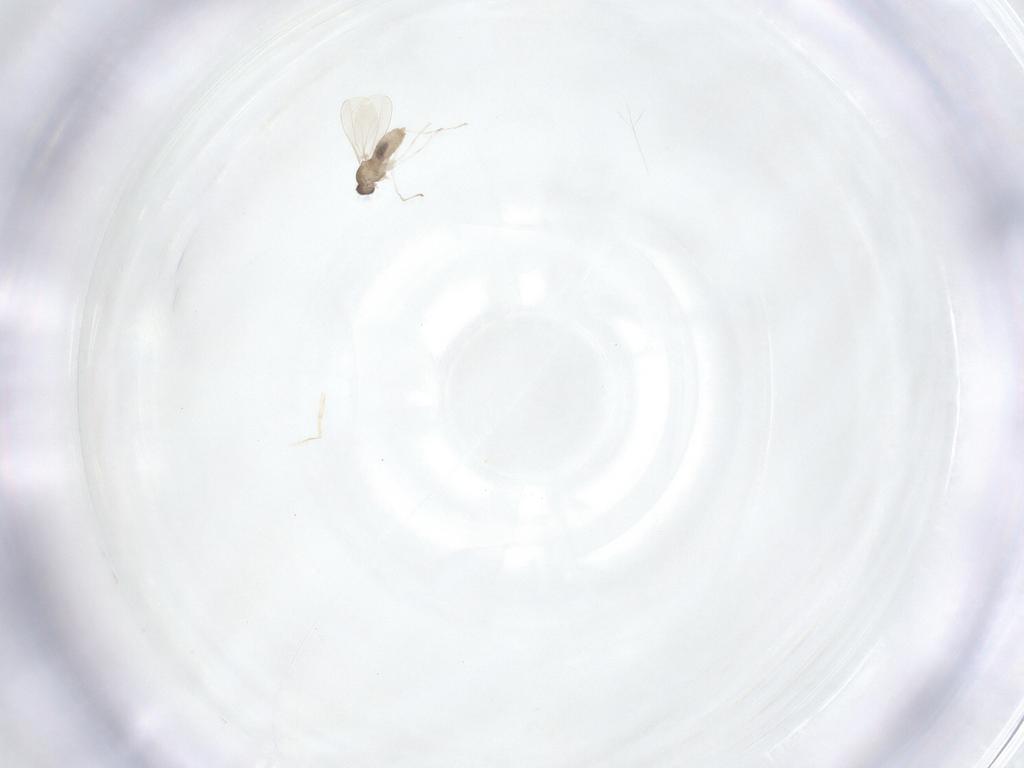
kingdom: Animalia
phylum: Arthropoda
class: Insecta
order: Diptera
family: Cecidomyiidae
